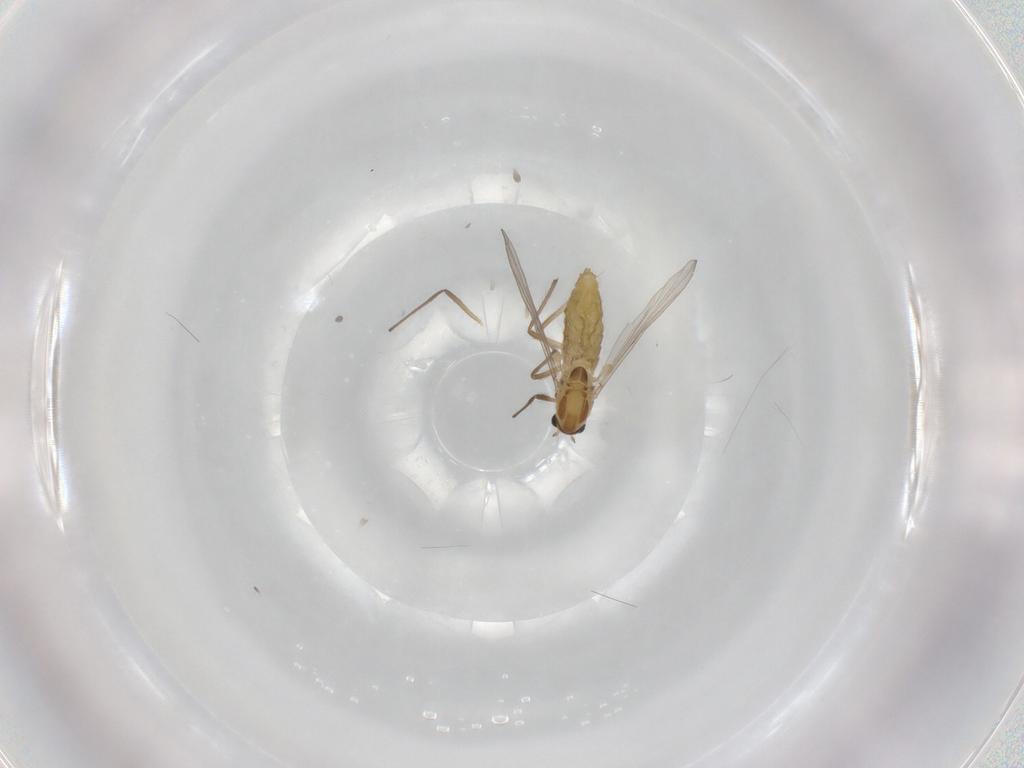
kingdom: Animalia
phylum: Arthropoda
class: Insecta
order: Diptera
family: Chironomidae
